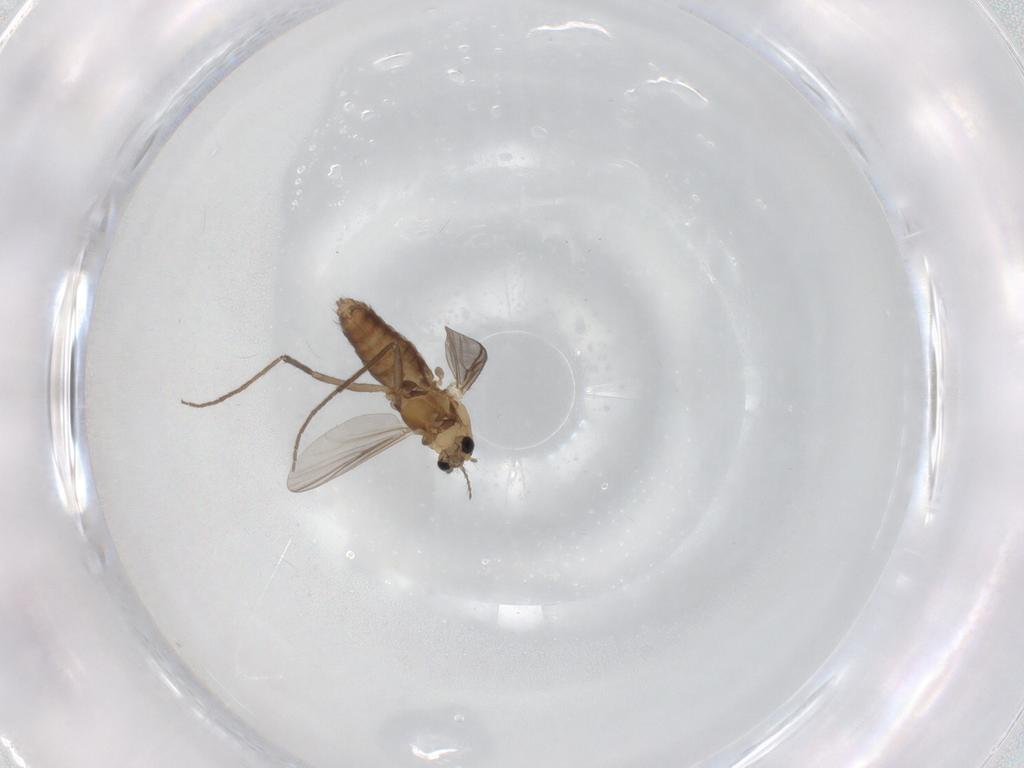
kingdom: Animalia
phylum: Arthropoda
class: Insecta
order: Diptera
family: Chironomidae
